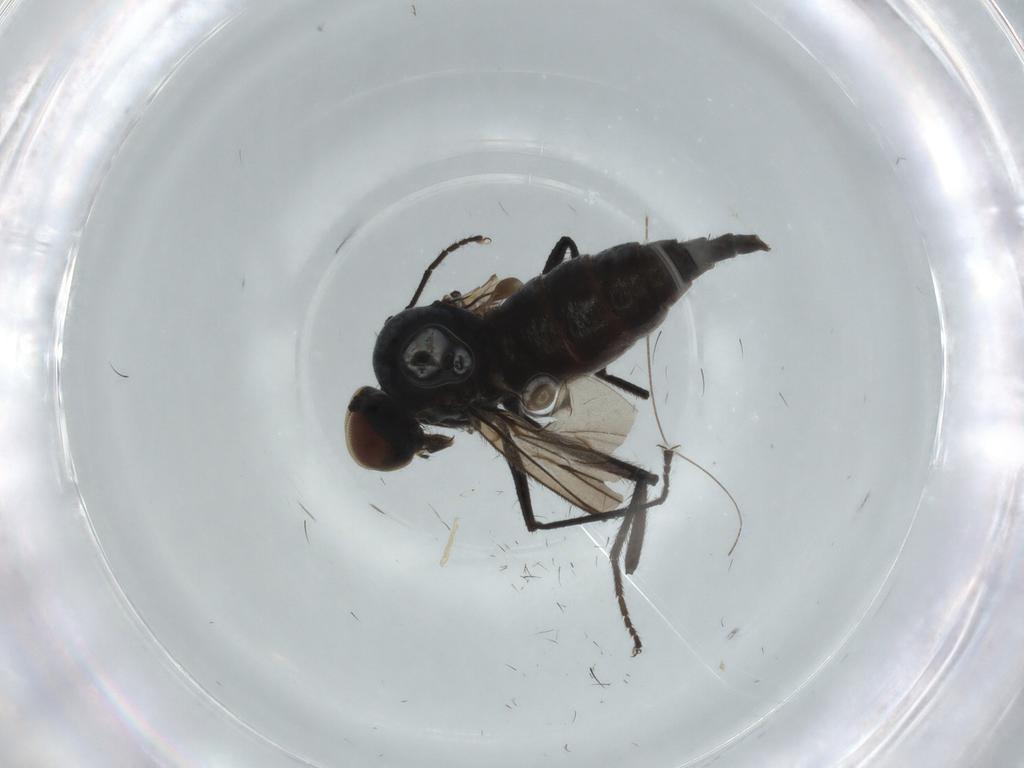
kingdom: Animalia
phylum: Arthropoda
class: Insecta
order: Diptera
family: Hybotidae
